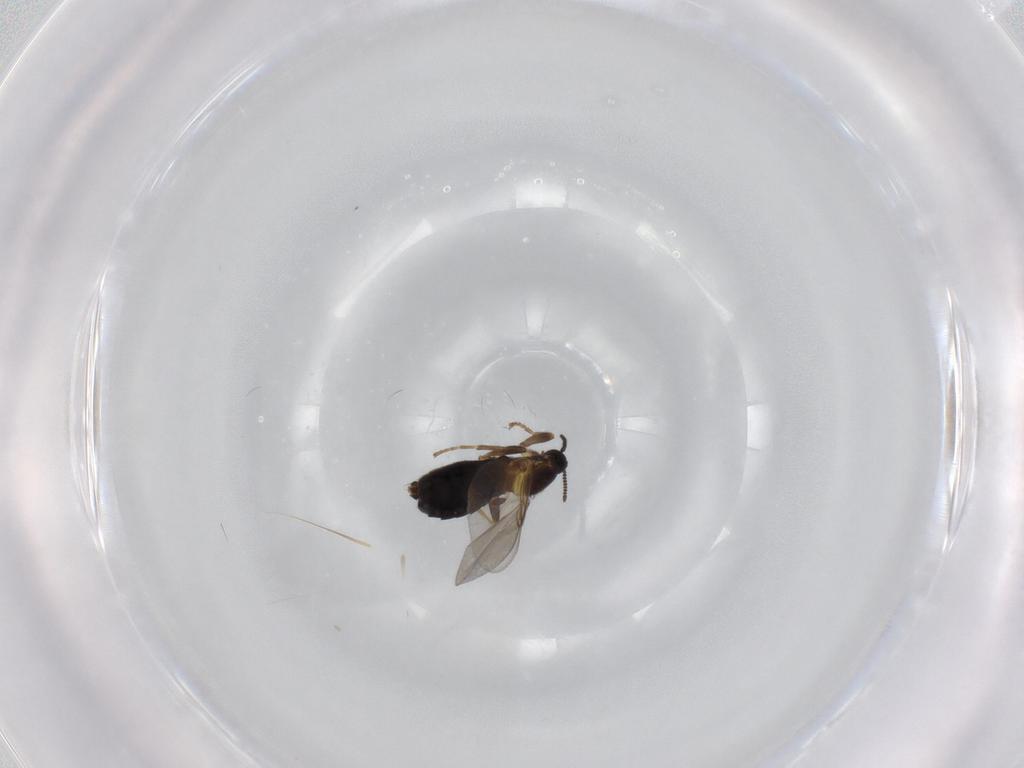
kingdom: Animalia
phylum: Arthropoda
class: Insecta
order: Diptera
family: Scatopsidae
